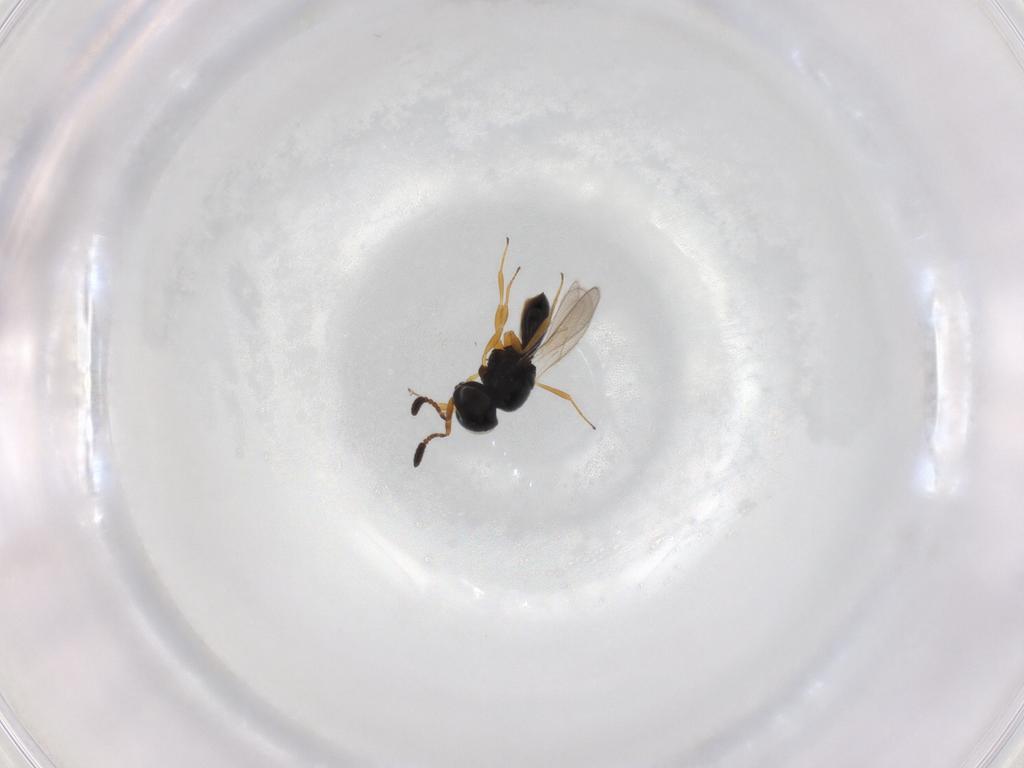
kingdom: Animalia
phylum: Arthropoda
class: Insecta
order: Hymenoptera
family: Scelionidae
